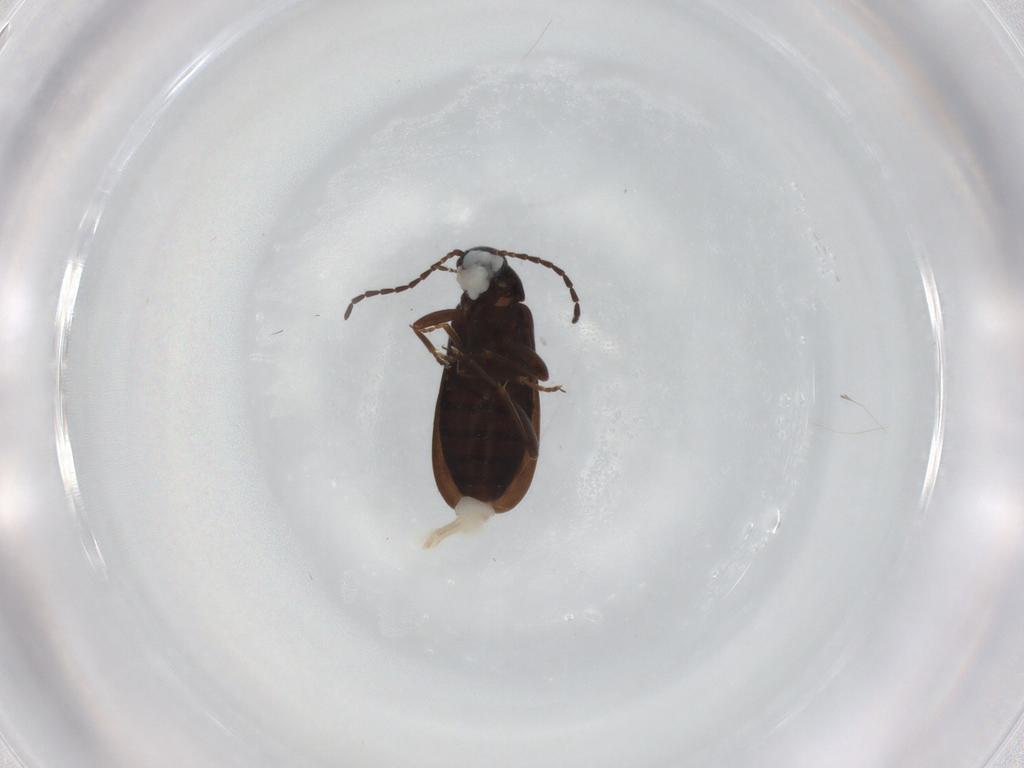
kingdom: Animalia
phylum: Arthropoda
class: Insecta
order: Coleoptera
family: Scraptiidae
